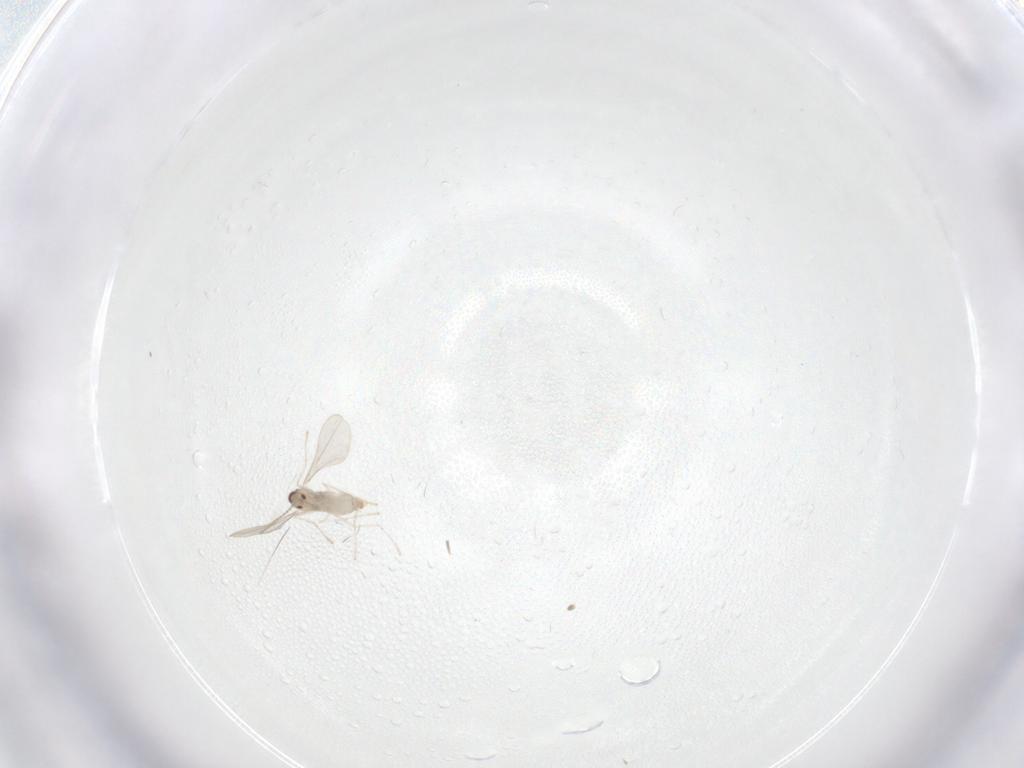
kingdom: Animalia
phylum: Arthropoda
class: Insecta
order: Diptera
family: Cecidomyiidae
